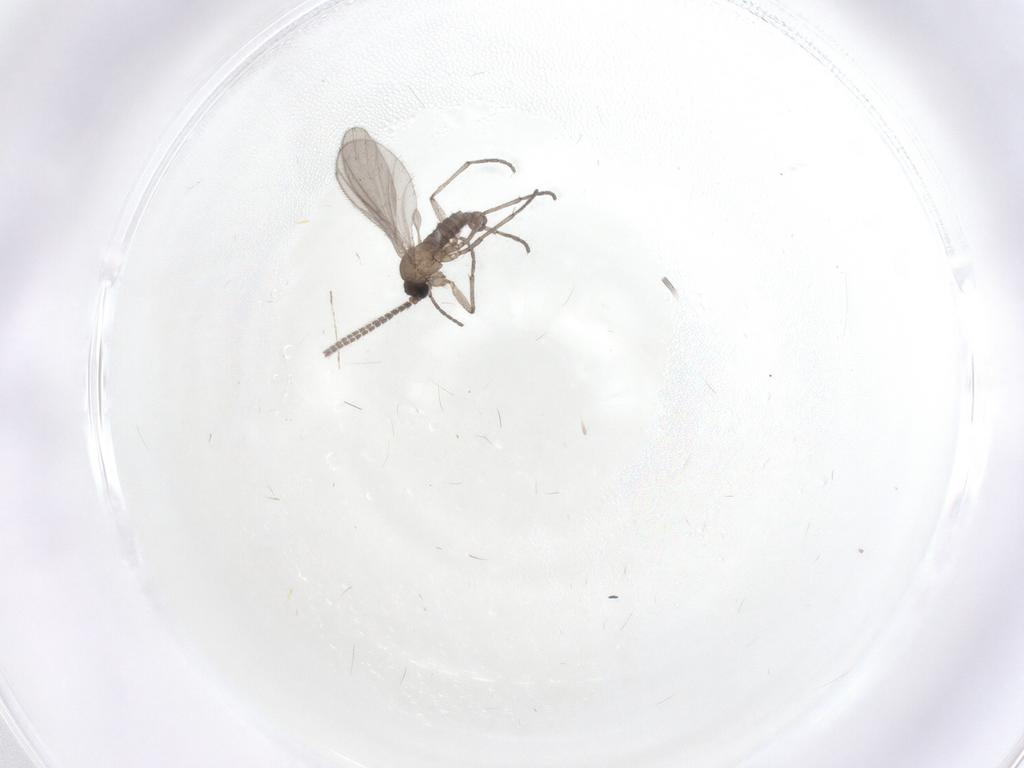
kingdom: Animalia
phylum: Arthropoda
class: Insecta
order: Diptera
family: Sciaridae
